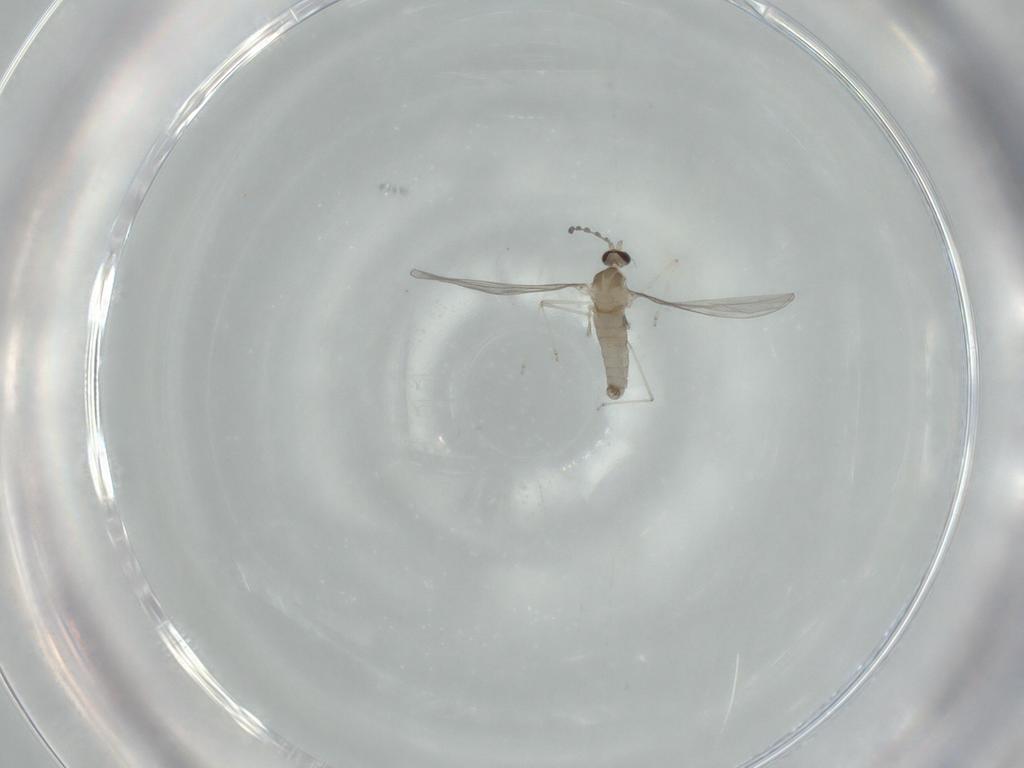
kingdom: Animalia
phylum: Arthropoda
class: Insecta
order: Diptera
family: Cecidomyiidae
